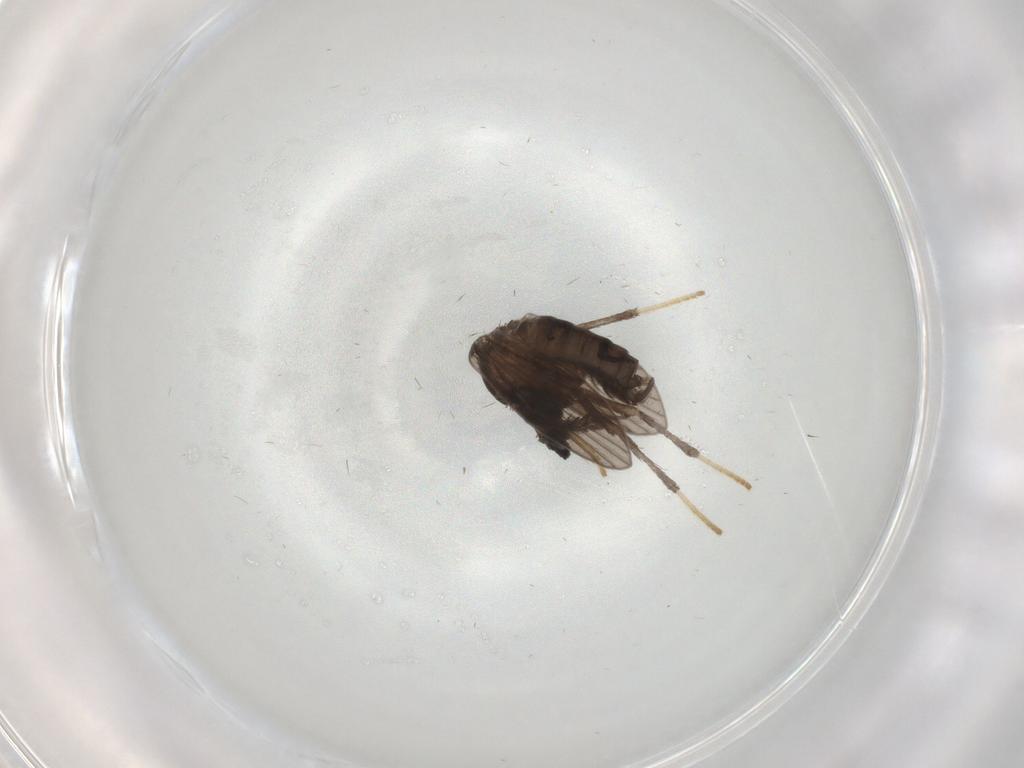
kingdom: Animalia
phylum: Arthropoda
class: Insecta
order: Diptera
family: Psychodidae
